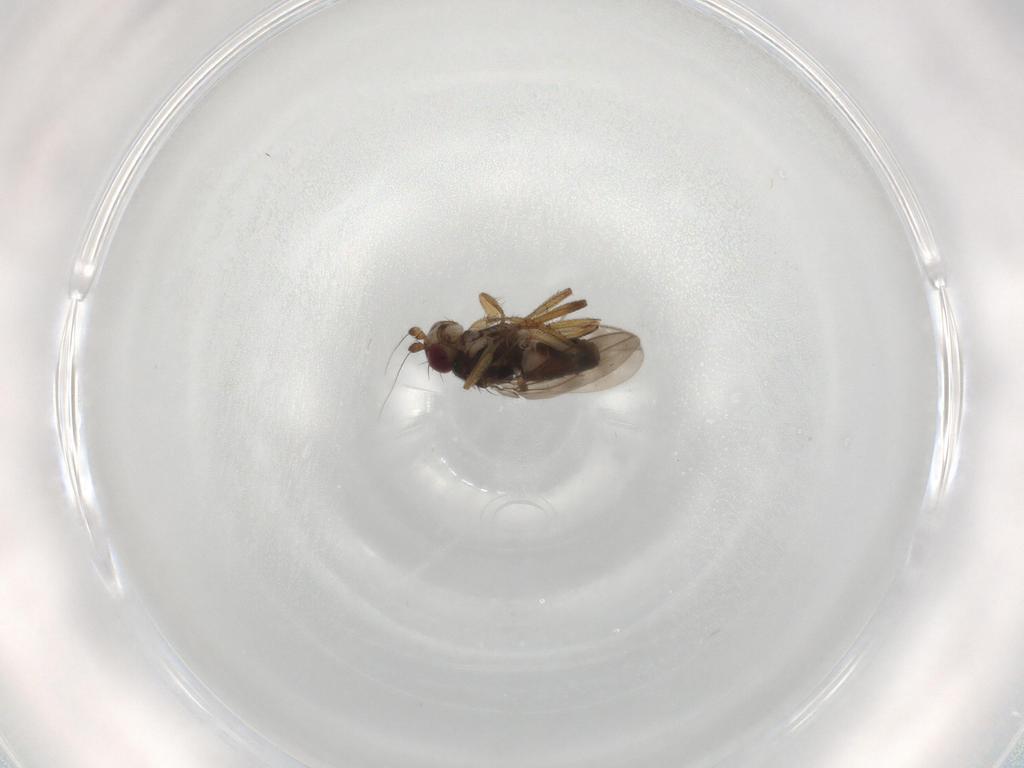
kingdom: Animalia
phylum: Arthropoda
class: Insecta
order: Diptera
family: Sphaeroceridae
